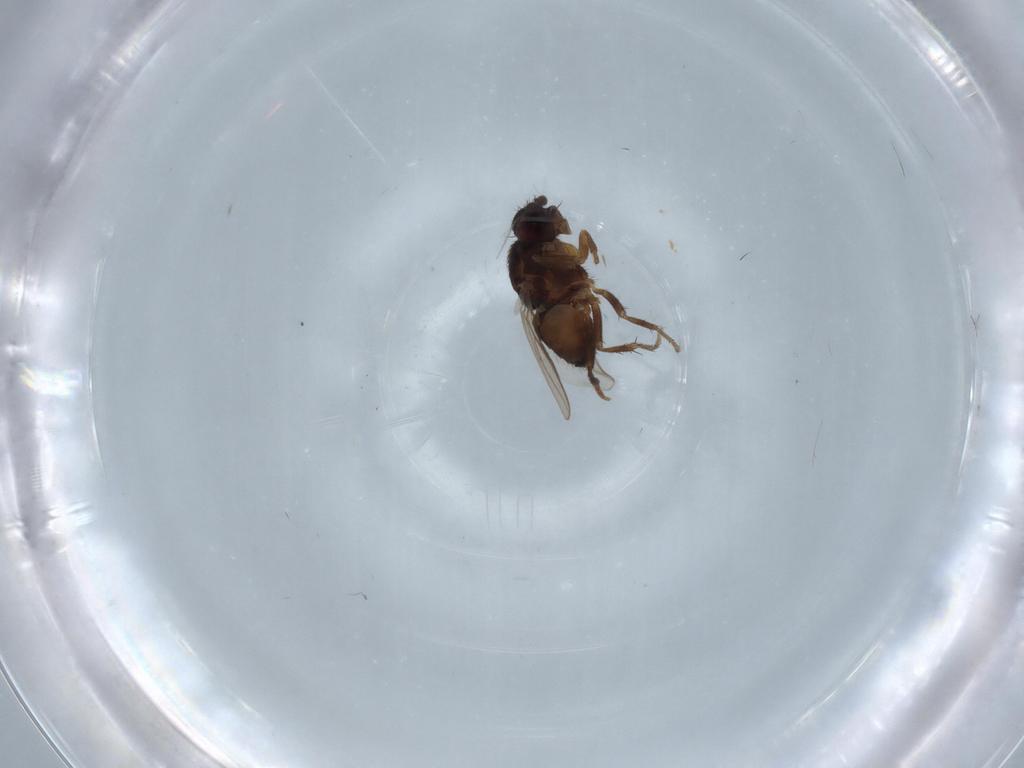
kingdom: Animalia
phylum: Arthropoda
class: Insecta
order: Diptera
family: Sphaeroceridae
